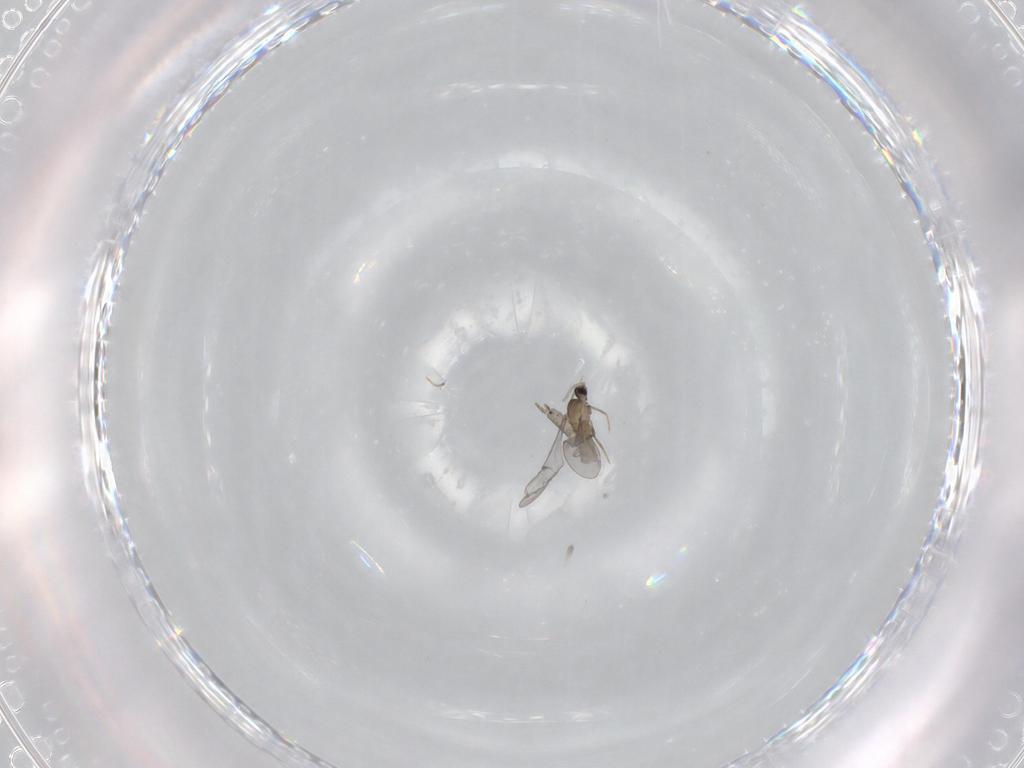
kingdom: Animalia
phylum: Arthropoda
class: Insecta
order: Diptera
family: Cecidomyiidae
